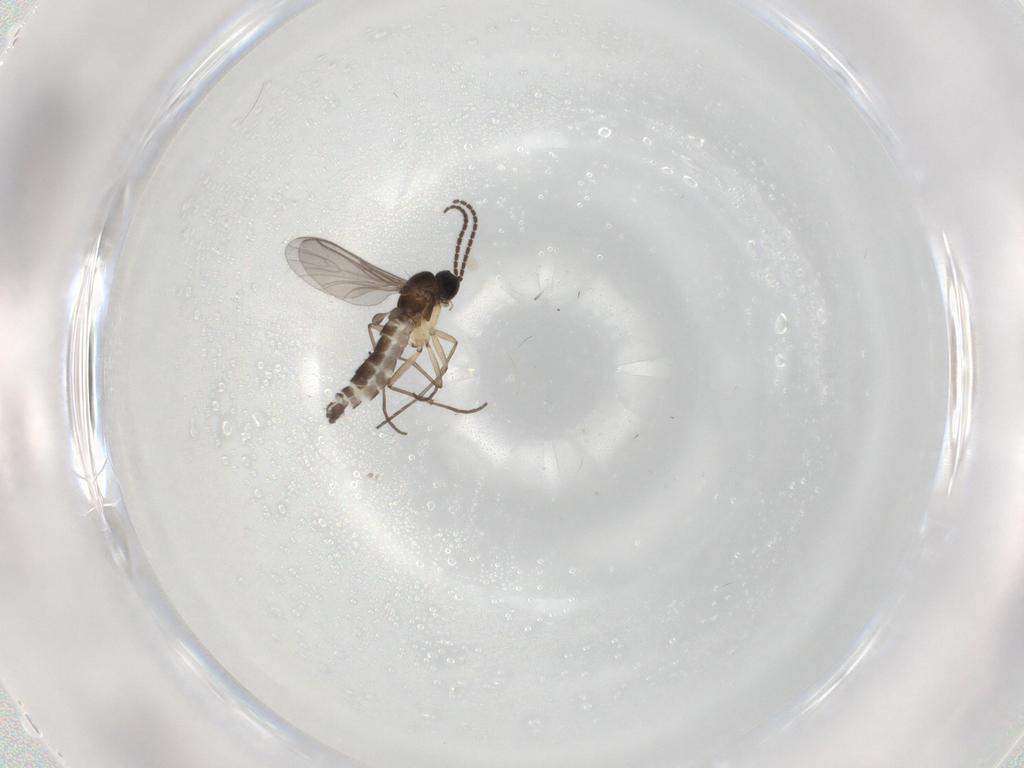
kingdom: Animalia
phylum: Arthropoda
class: Insecta
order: Diptera
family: Sciaridae
